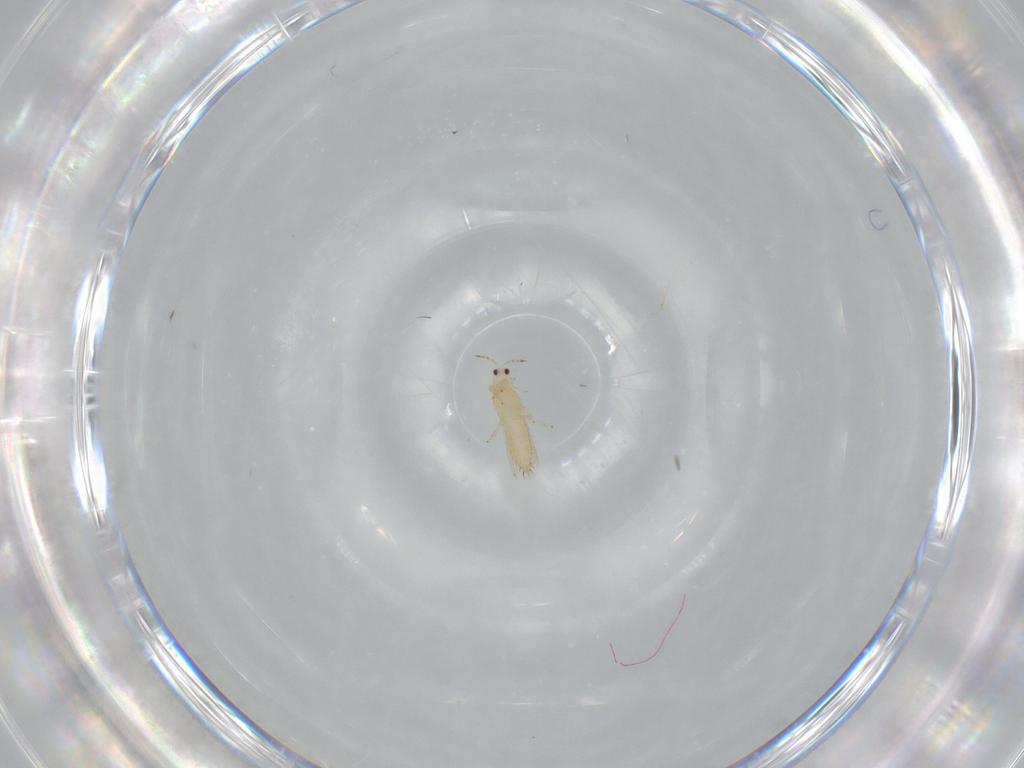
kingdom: Animalia
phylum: Arthropoda
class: Insecta
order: Thysanoptera
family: Thripidae
